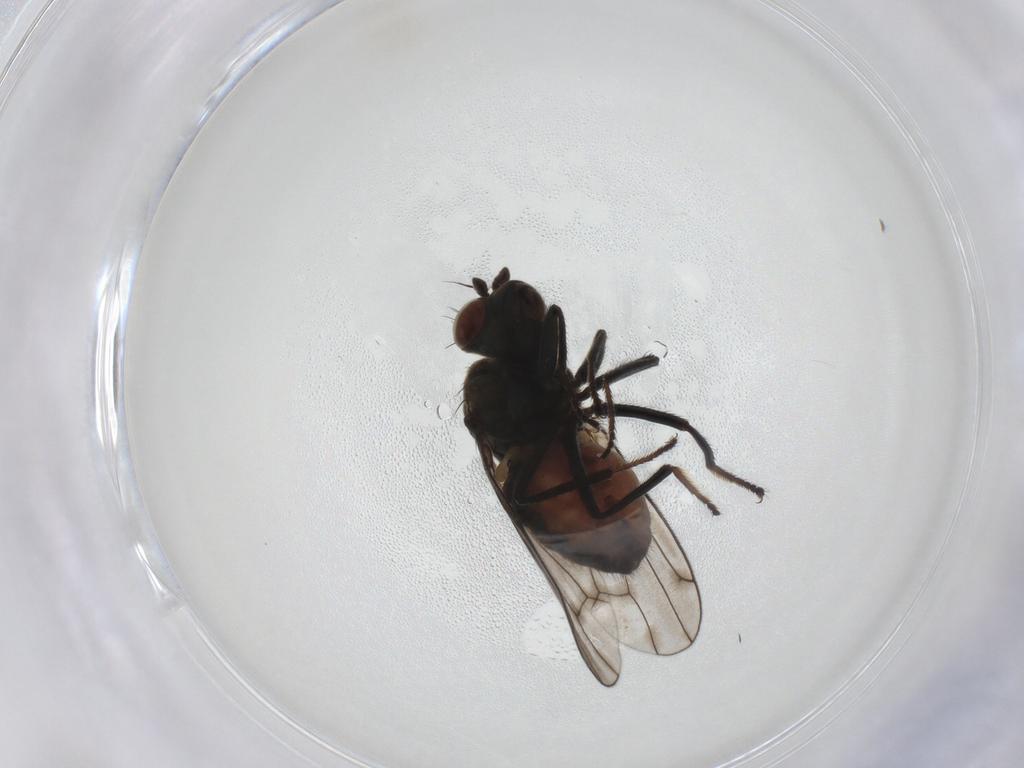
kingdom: Animalia
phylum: Arthropoda
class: Insecta
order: Diptera
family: Ephydridae
